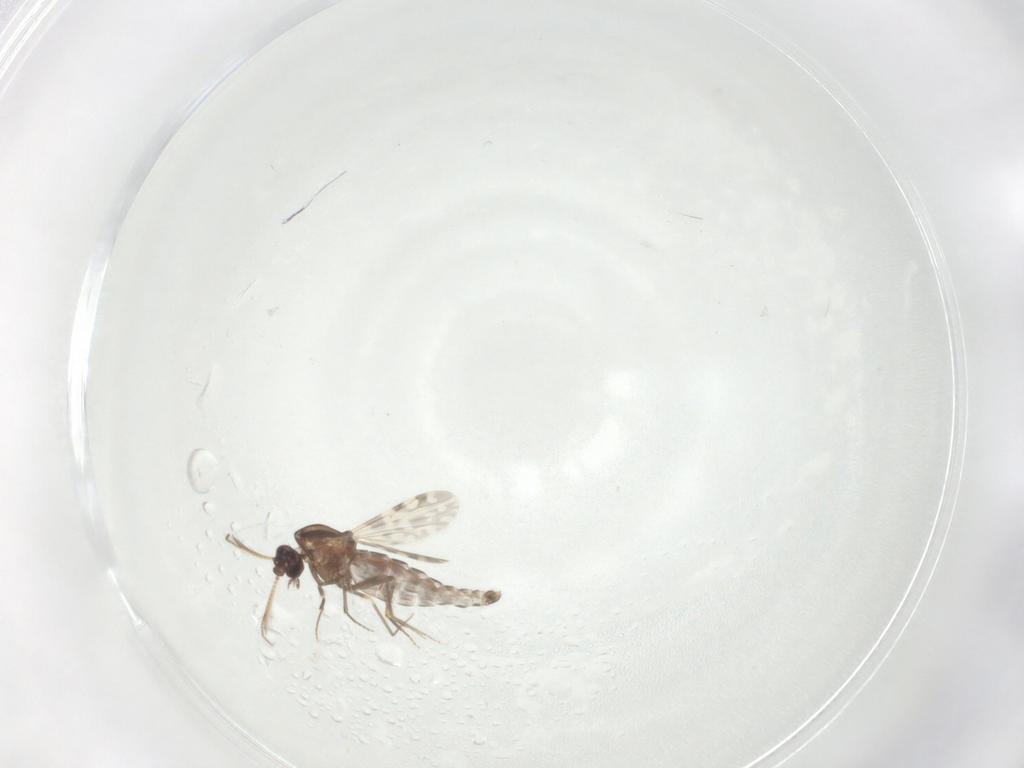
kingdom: Animalia
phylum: Arthropoda
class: Insecta
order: Diptera
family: Ceratopogonidae
